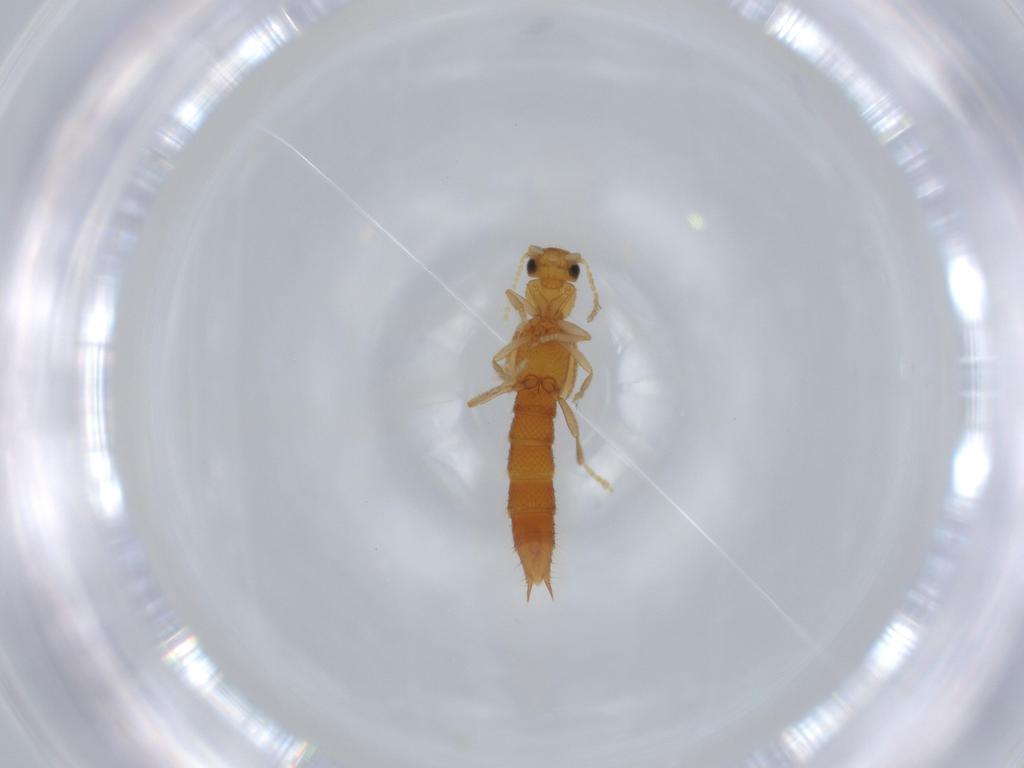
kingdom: Animalia
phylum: Arthropoda
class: Insecta
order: Coleoptera
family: Staphylinidae
